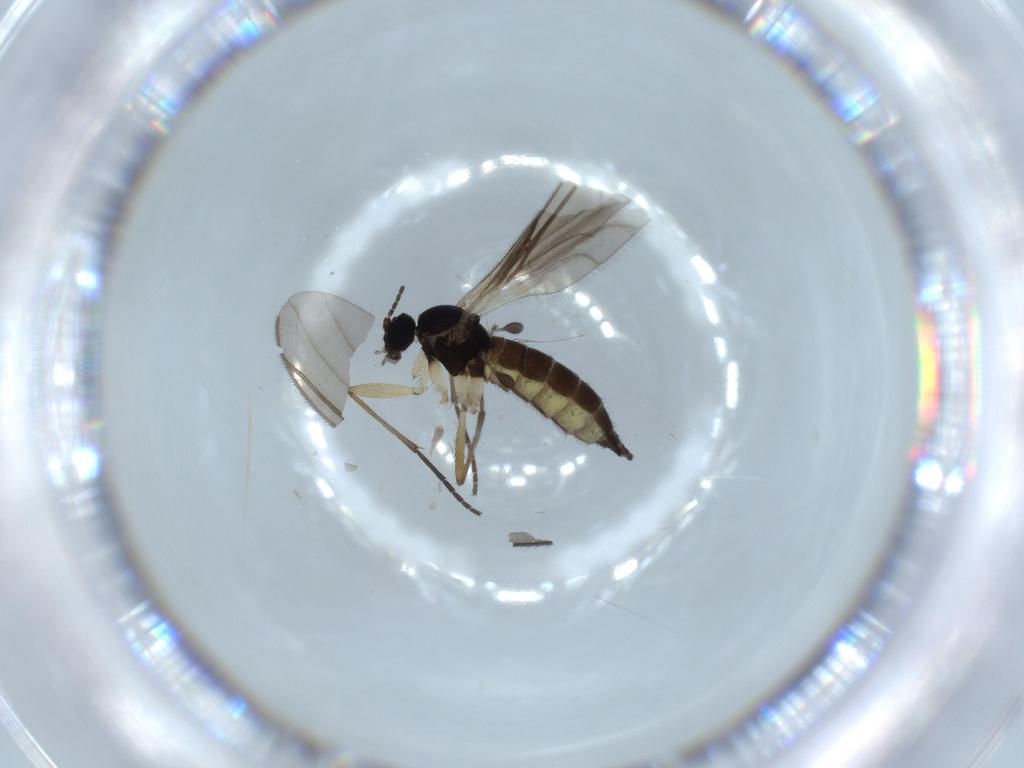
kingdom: Animalia
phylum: Arthropoda
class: Insecta
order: Diptera
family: Sciaridae
